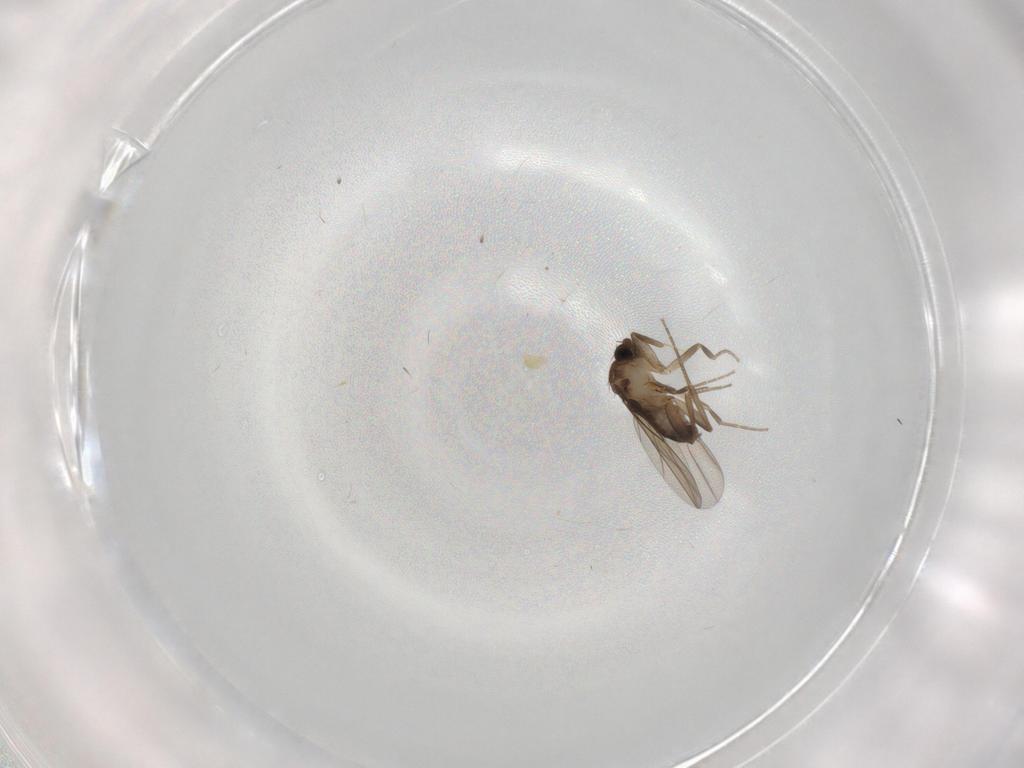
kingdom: Animalia
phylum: Arthropoda
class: Insecta
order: Diptera
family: Phoridae
